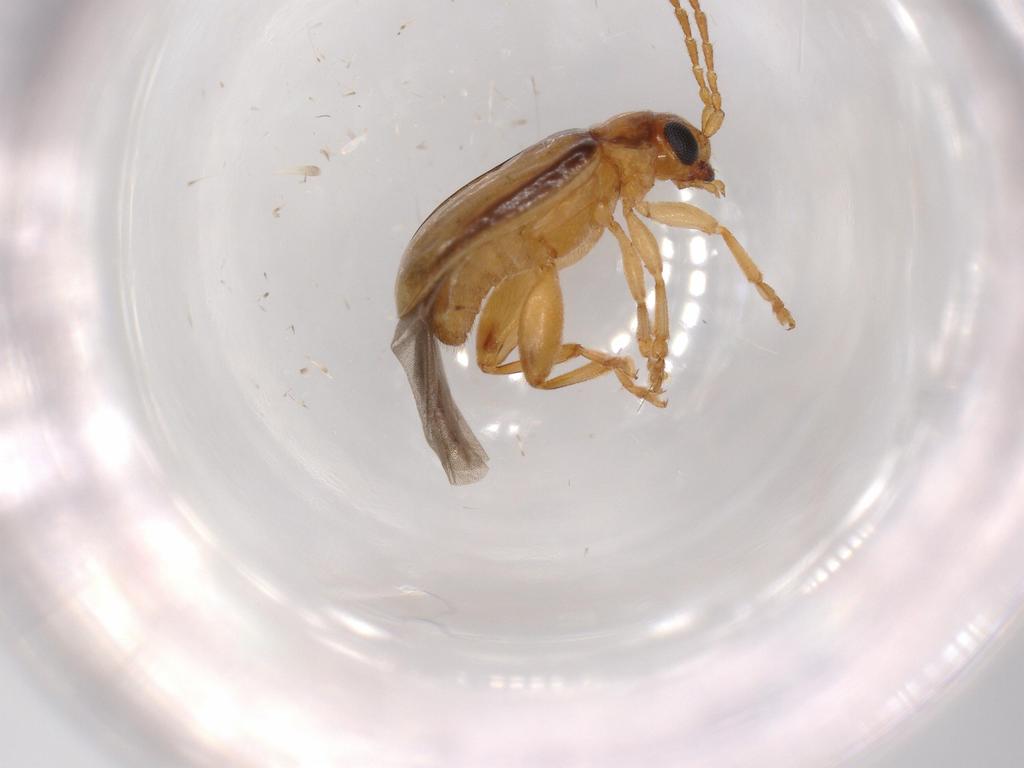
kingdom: Animalia
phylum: Arthropoda
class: Insecta
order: Coleoptera
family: Chrysomelidae
